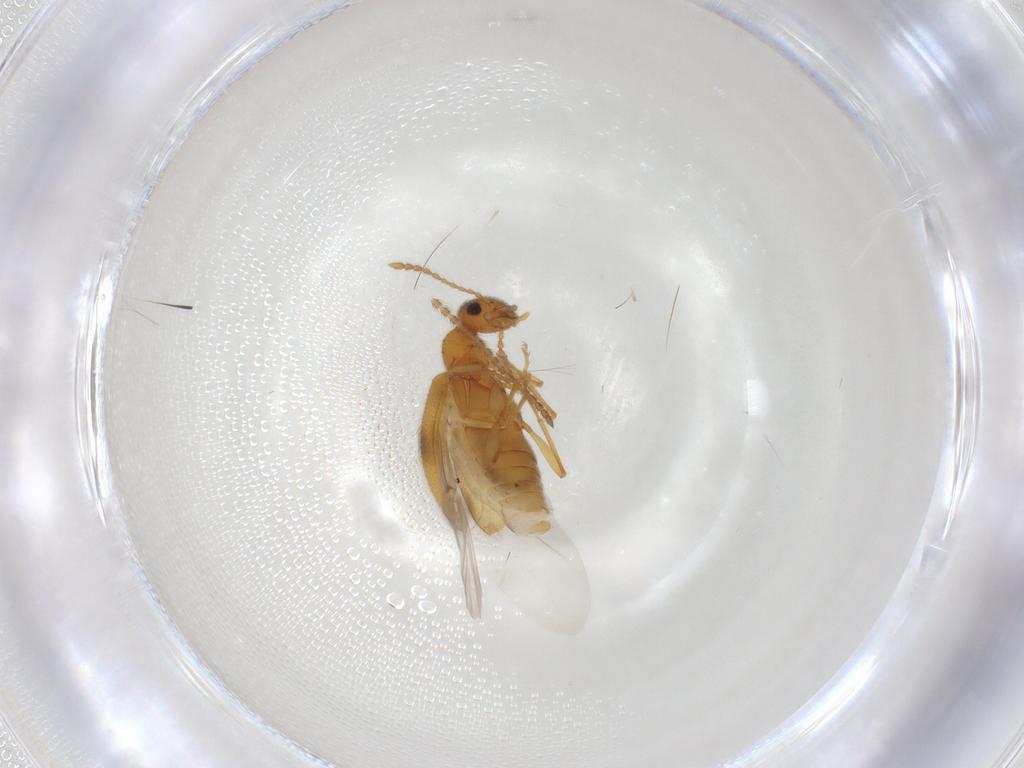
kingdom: Animalia
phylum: Arthropoda
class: Insecta
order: Coleoptera
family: Anthicidae
